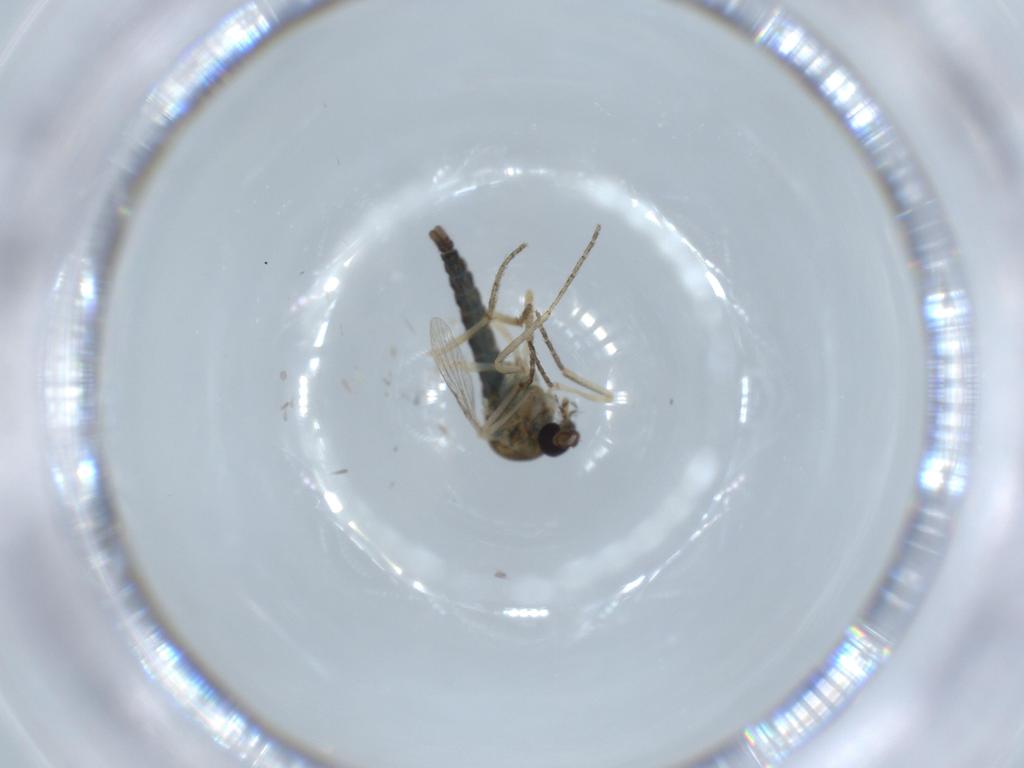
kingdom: Animalia
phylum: Arthropoda
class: Insecta
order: Diptera
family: Ceratopogonidae
